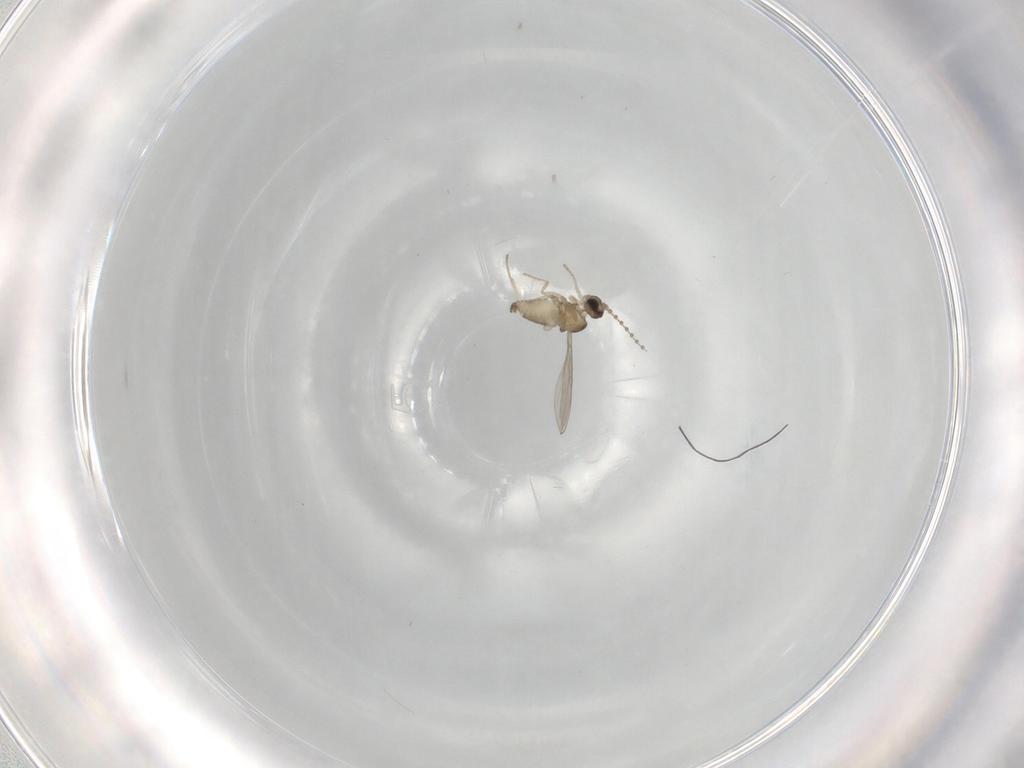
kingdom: Animalia
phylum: Arthropoda
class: Insecta
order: Diptera
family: Cecidomyiidae
